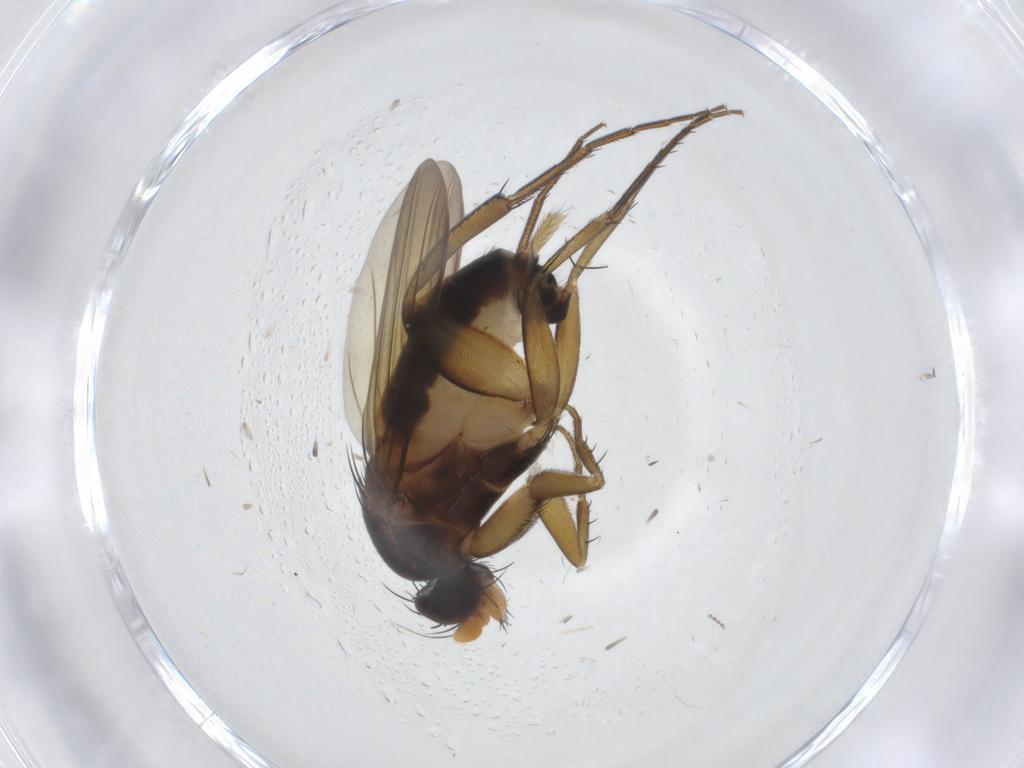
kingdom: Animalia
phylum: Arthropoda
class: Insecta
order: Diptera
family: Phoridae
